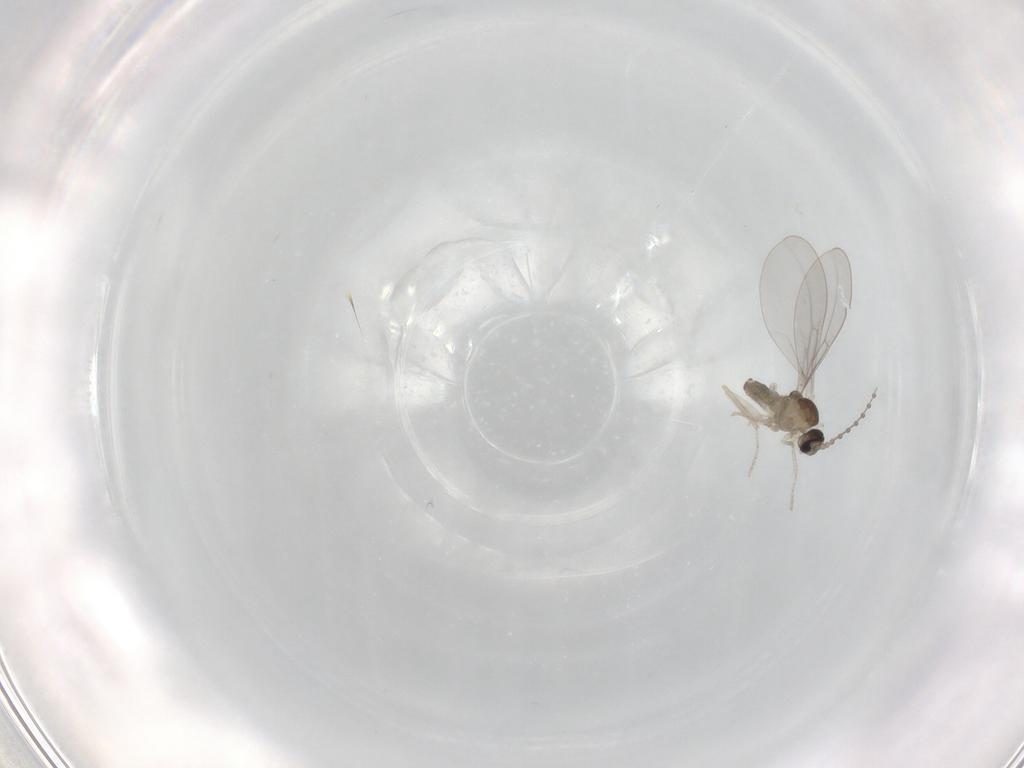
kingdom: Animalia
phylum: Arthropoda
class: Insecta
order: Diptera
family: Cecidomyiidae
